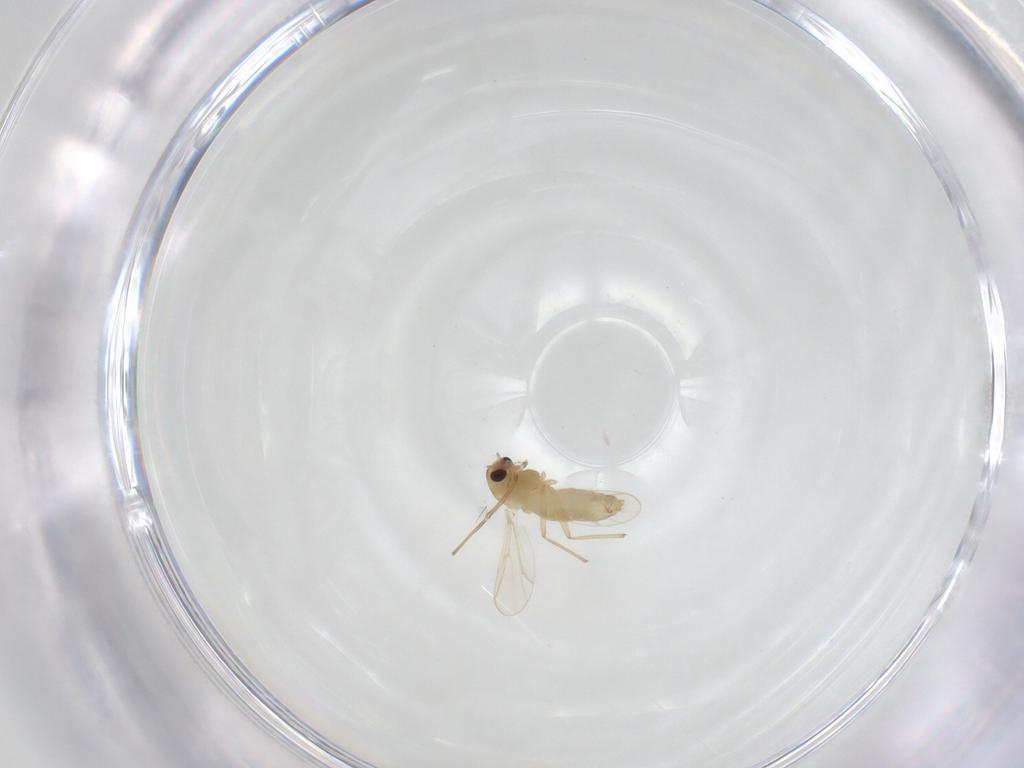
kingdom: Animalia
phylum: Arthropoda
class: Insecta
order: Diptera
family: Chironomidae
